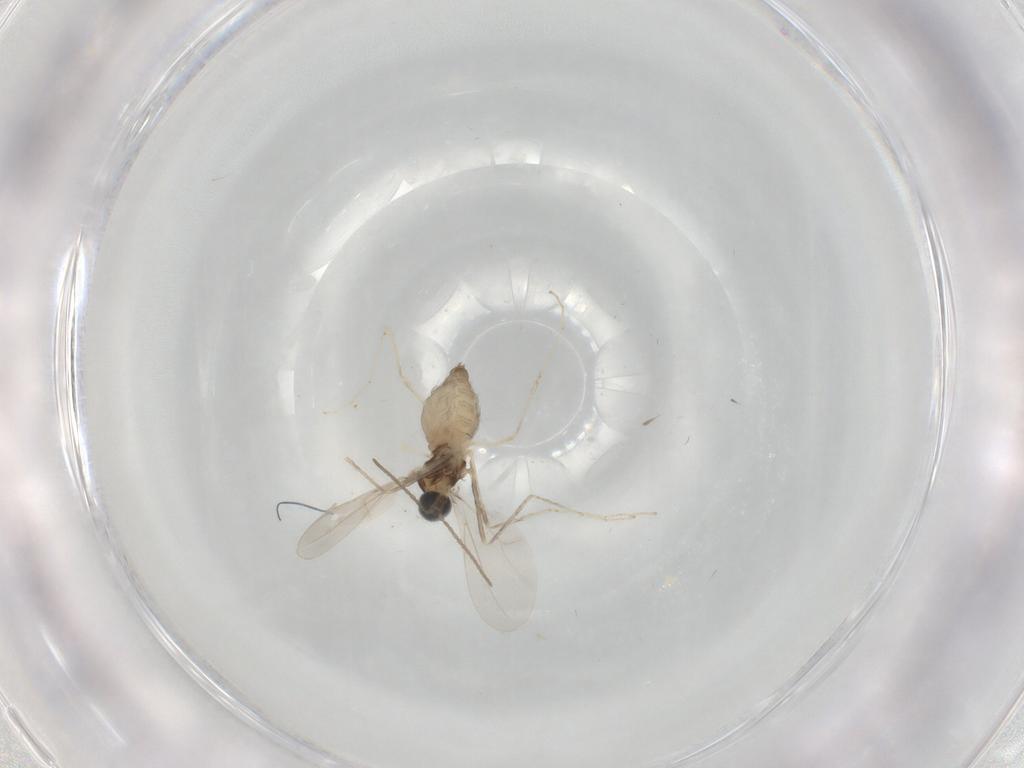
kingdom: Animalia
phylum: Arthropoda
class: Insecta
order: Diptera
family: Cecidomyiidae
